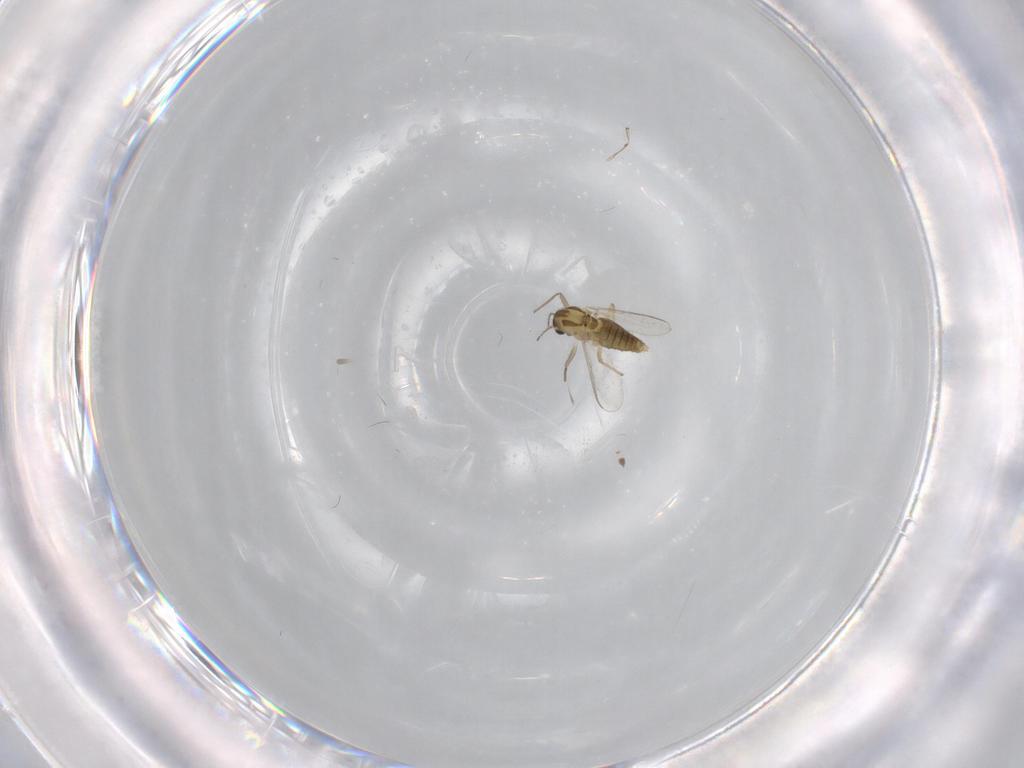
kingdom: Animalia
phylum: Arthropoda
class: Insecta
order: Diptera
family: Chironomidae
